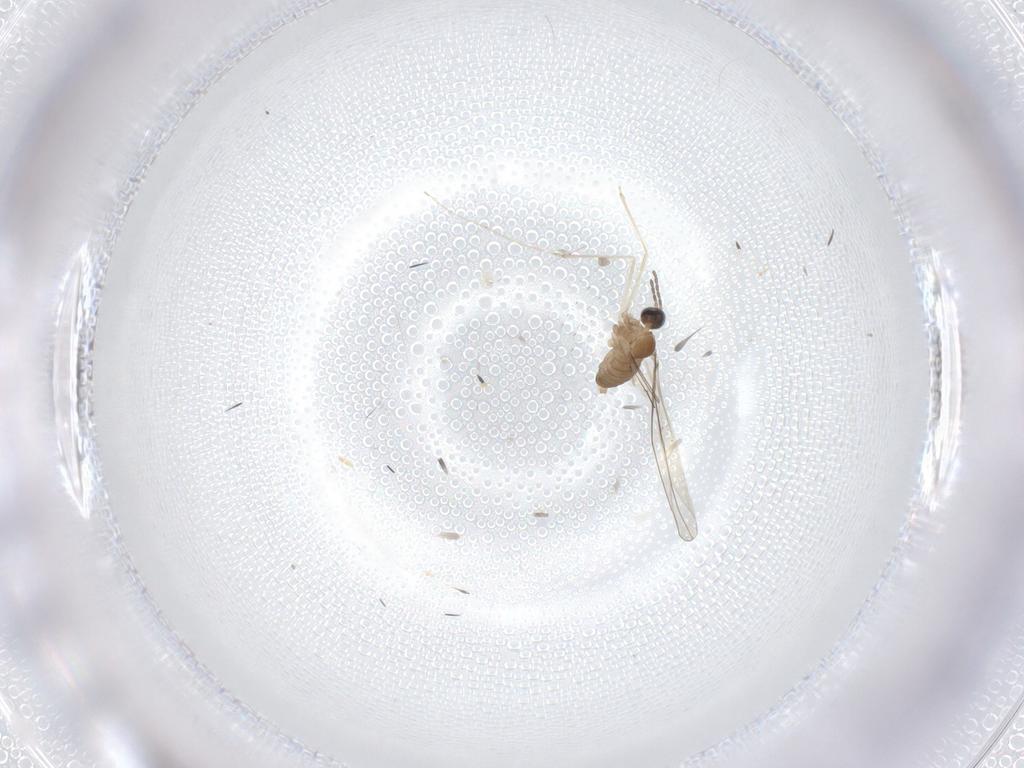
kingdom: Animalia
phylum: Arthropoda
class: Insecta
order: Diptera
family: Cecidomyiidae
